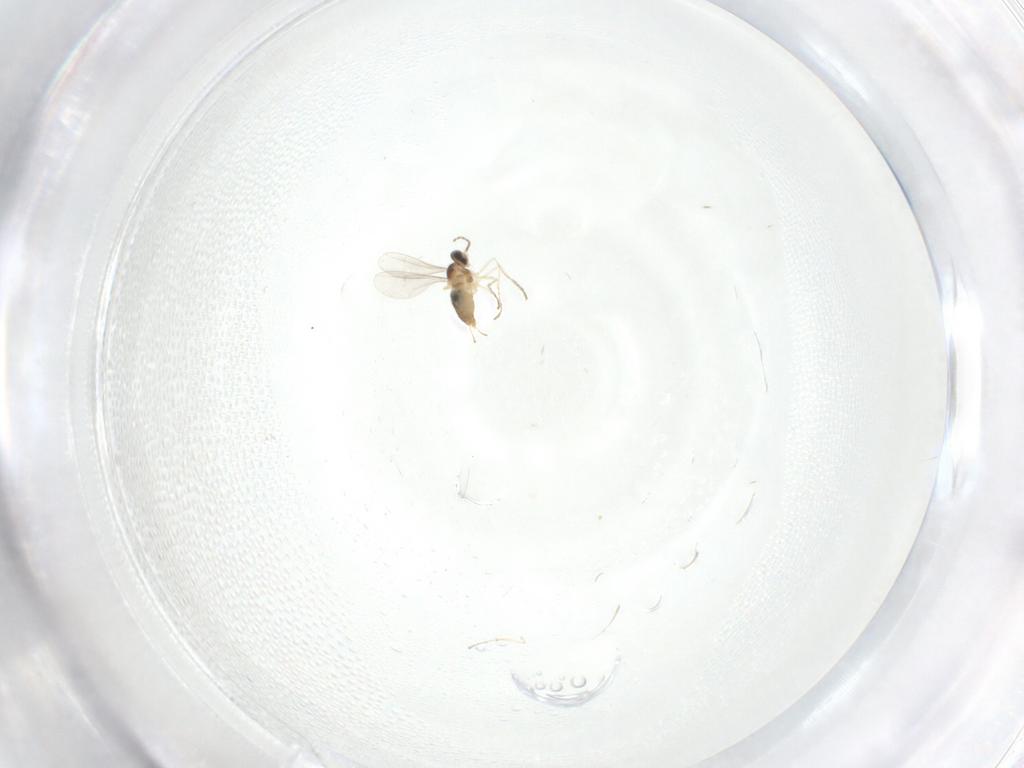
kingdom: Animalia
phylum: Arthropoda
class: Insecta
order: Diptera
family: Cecidomyiidae
